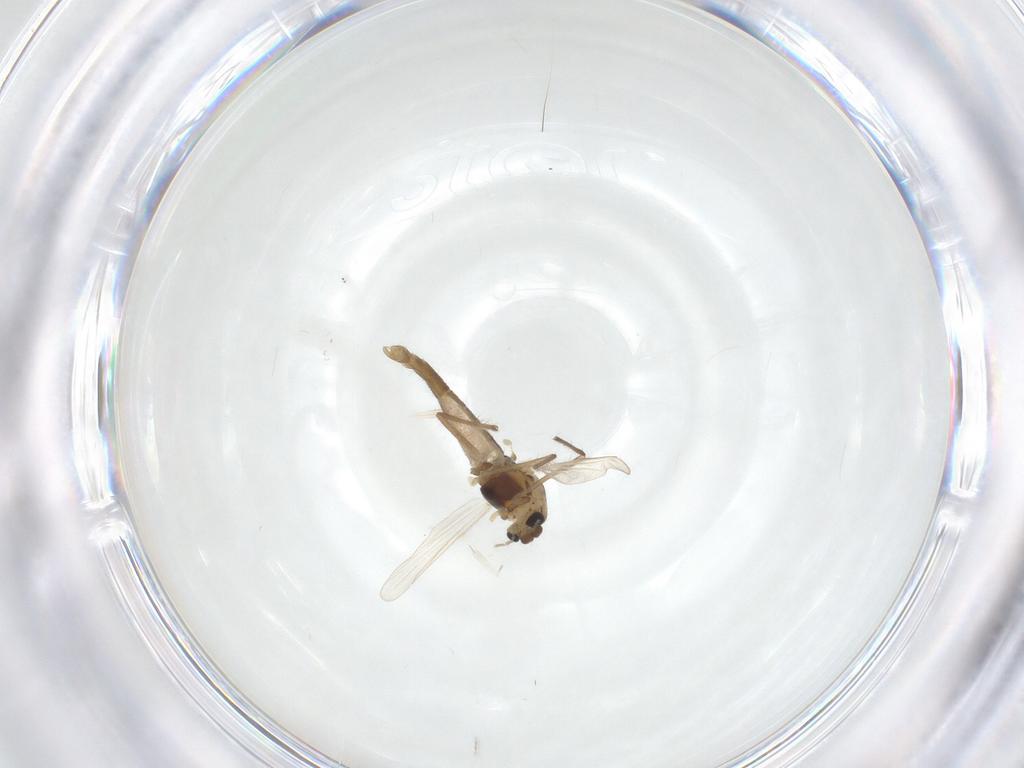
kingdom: Animalia
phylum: Arthropoda
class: Insecta
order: Diptera
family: Chironomidae
